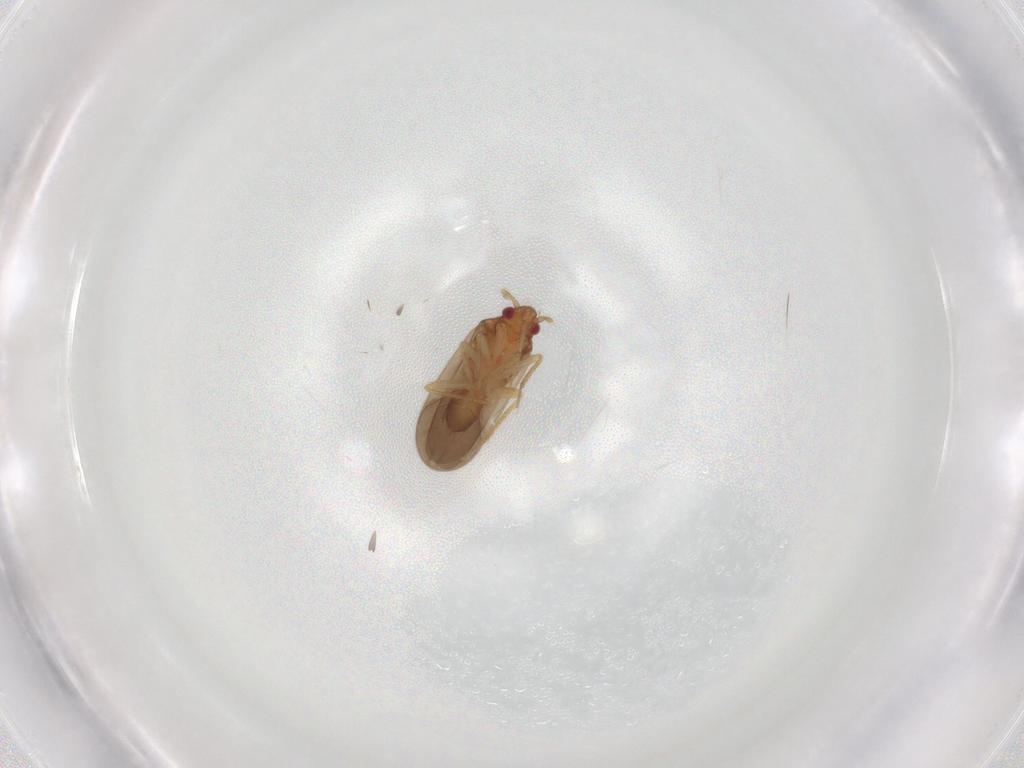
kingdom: Animalia
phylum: Arthropoda
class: Insecta
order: Hemiptera
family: Ceratocombidae
